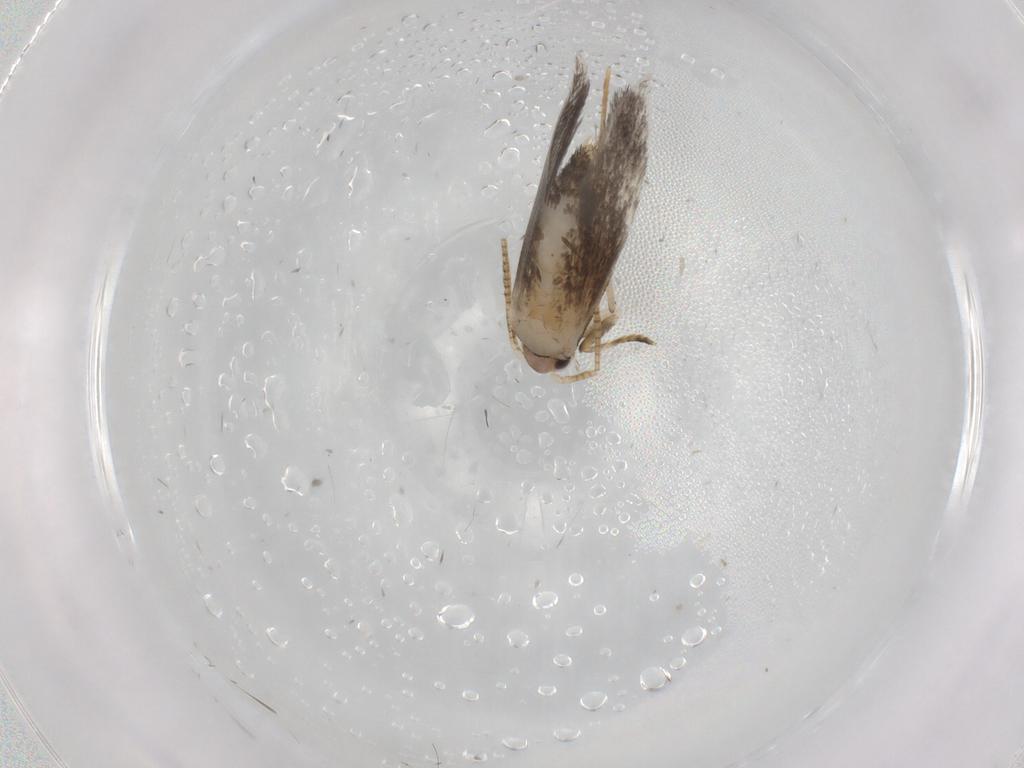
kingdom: Animalia
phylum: Arthropoda
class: Insecta
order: Lepidoptera
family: Tineidae
